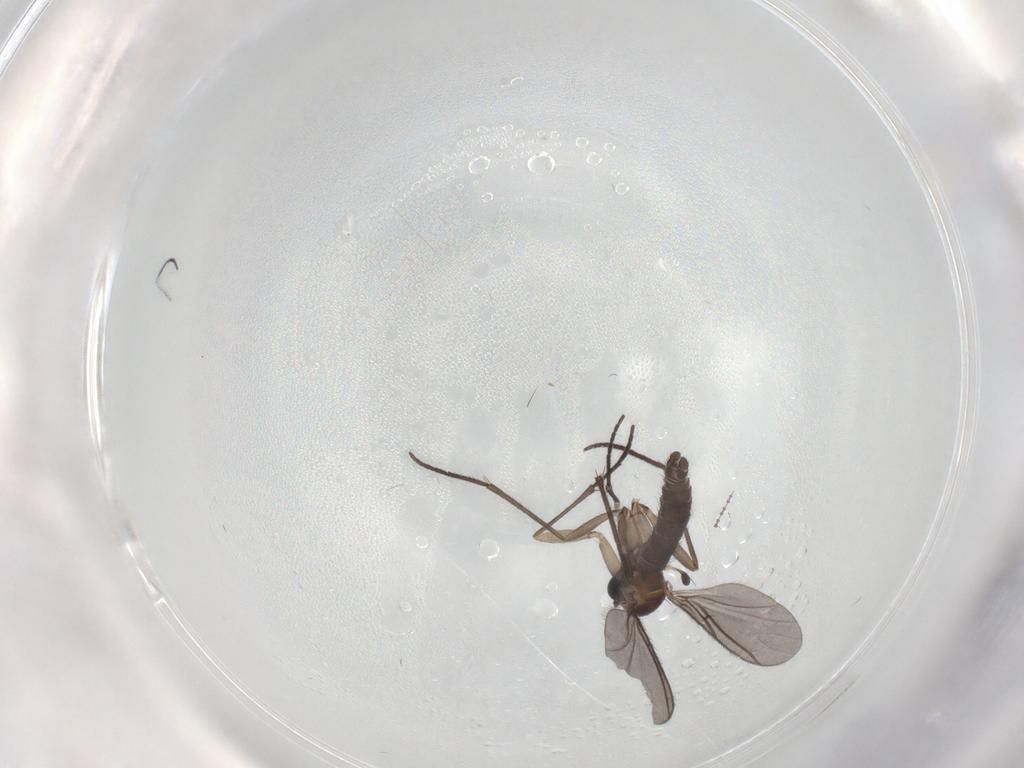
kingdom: Animalia
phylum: Arthropoda
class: Insecta
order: Diptera
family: Sciaridae
